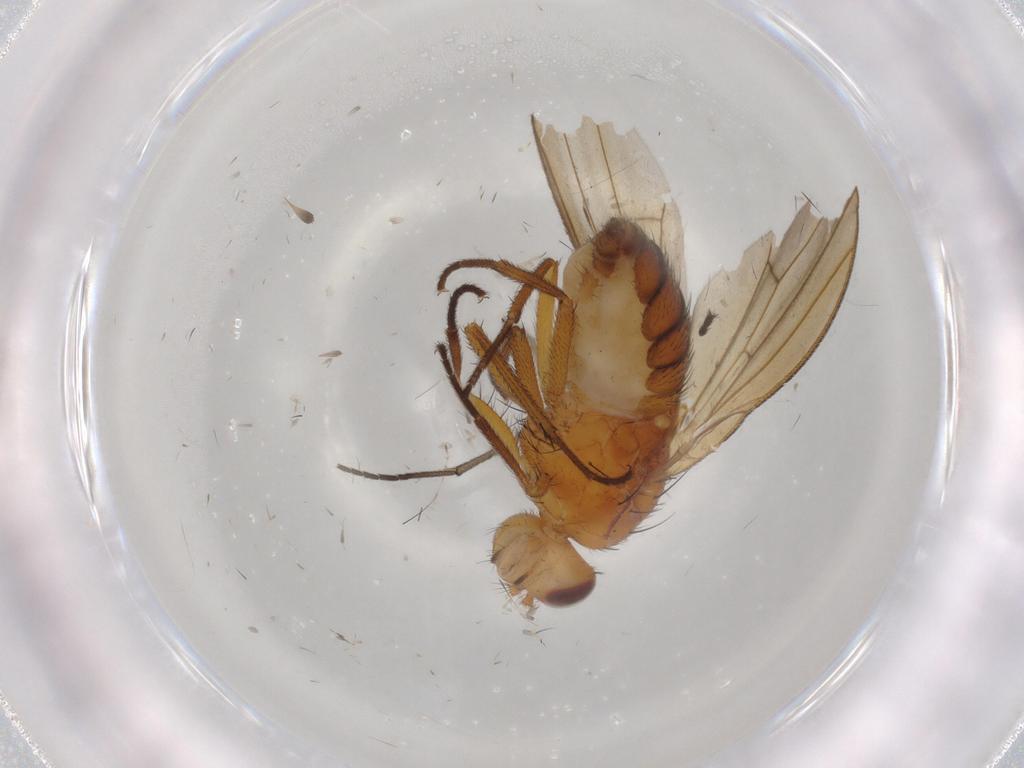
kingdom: Animalia
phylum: Arthropoda
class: Insecta
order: Diptera
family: Lauxaniidae
